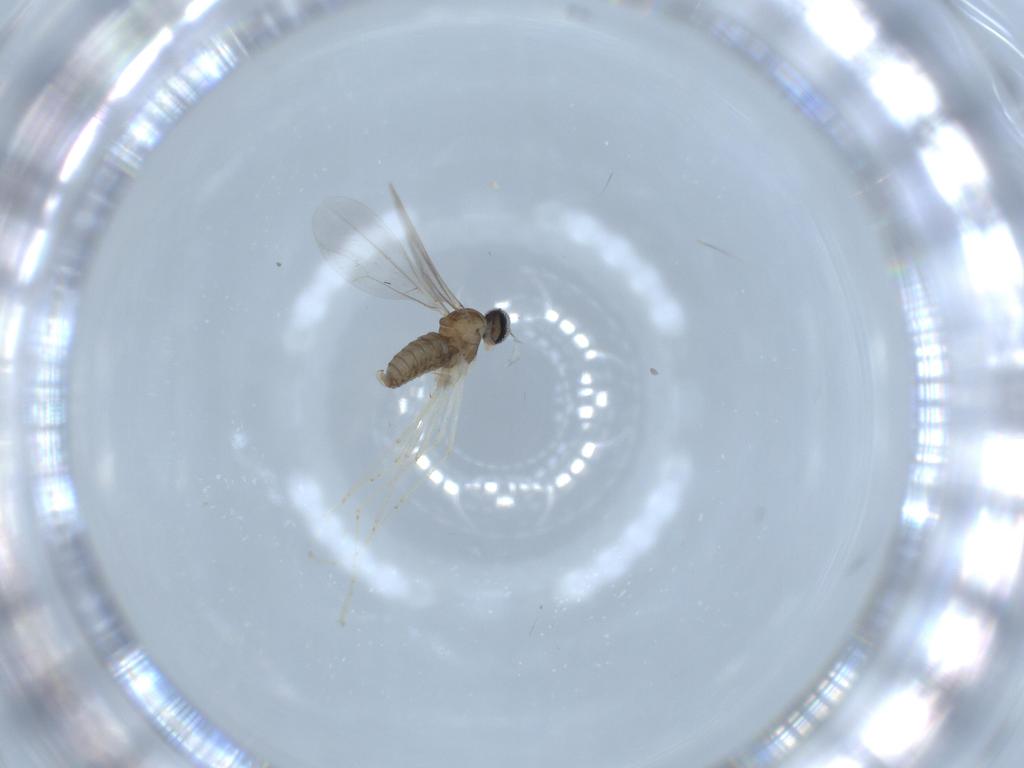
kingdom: Animalia
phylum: Arthropoda
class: Insecta
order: Diptera
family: Cecidomyiidae
